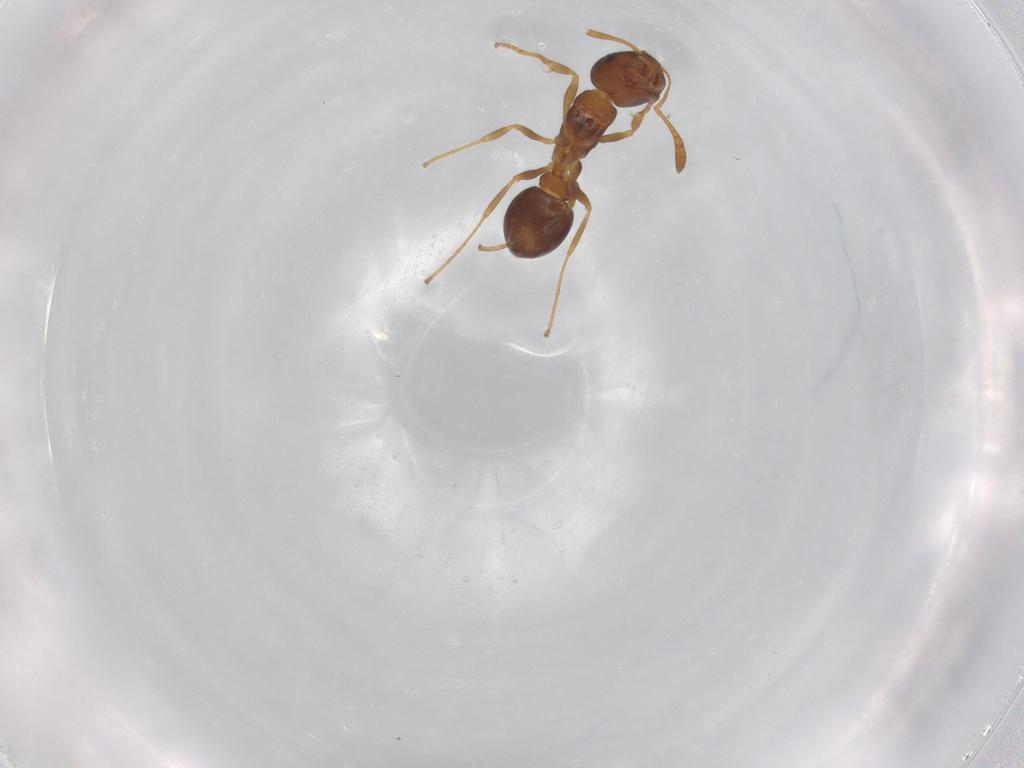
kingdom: Animalia
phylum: Arthropoda
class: Insecta
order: Hymenoptera
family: Formicidae
